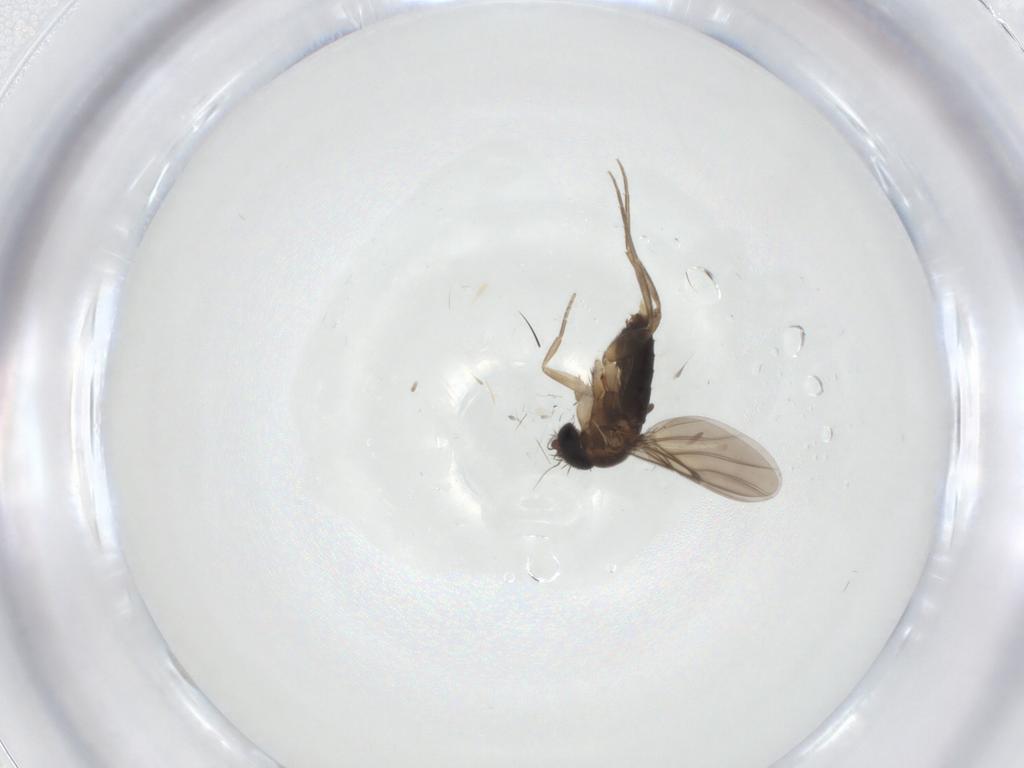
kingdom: Animalia
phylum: Arthropoda
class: Insecta
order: Diptera
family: Phoridae
